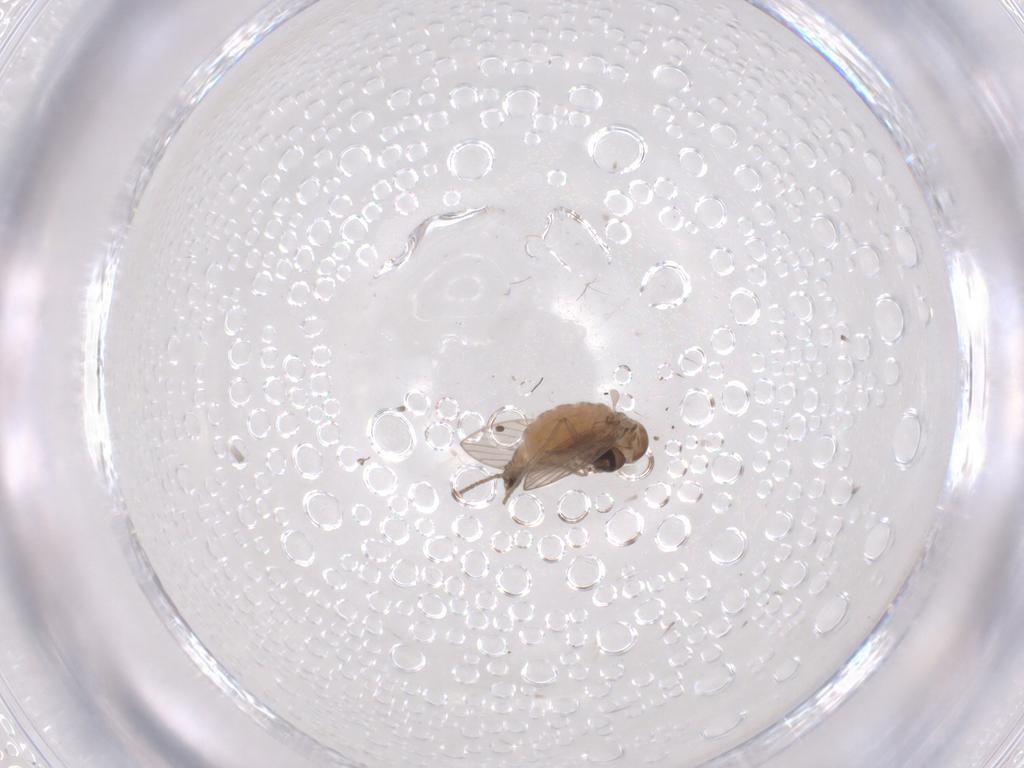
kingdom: Animalia
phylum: Arthropoda
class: Insecta
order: Diptera
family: Psychodidae
